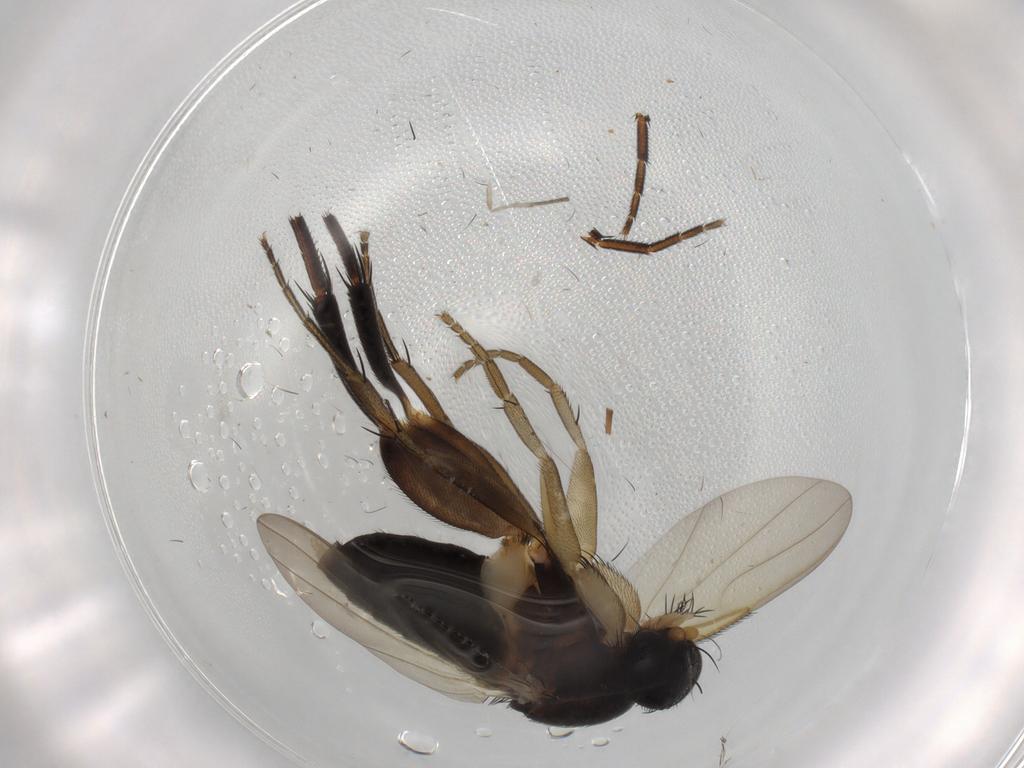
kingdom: Animalia
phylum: Arthropoda
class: Insecta
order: Diptera
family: Phoridae
